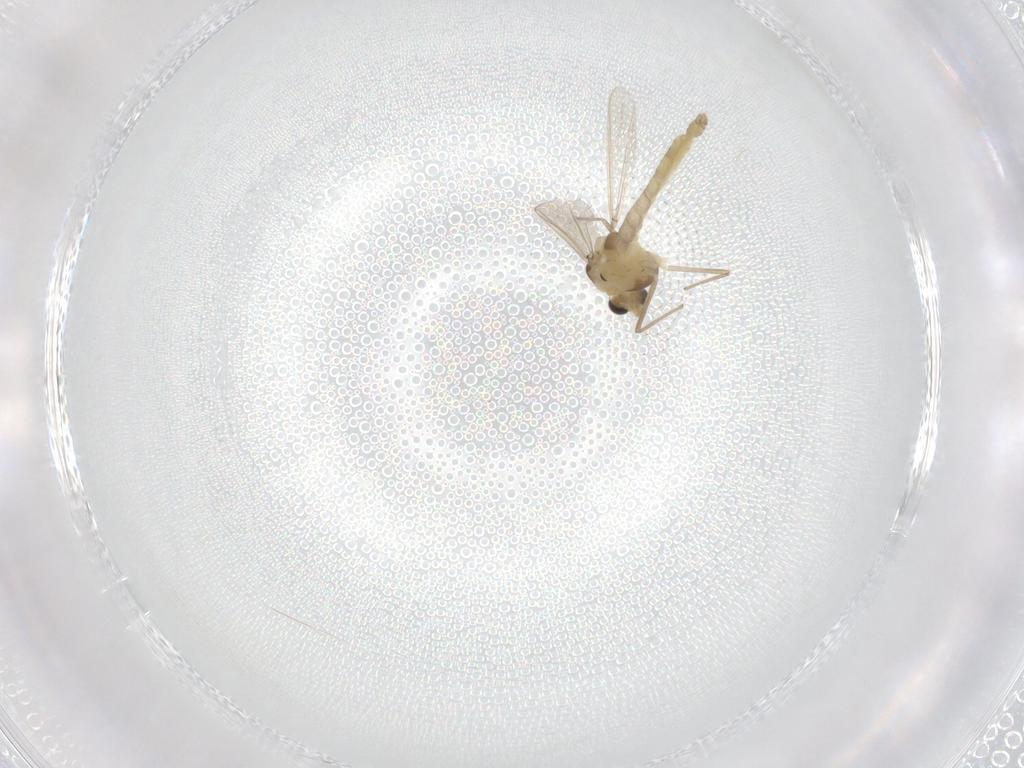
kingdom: Animalia
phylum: Arthropoda
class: Insecta
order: Diptera
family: Chironomidae
